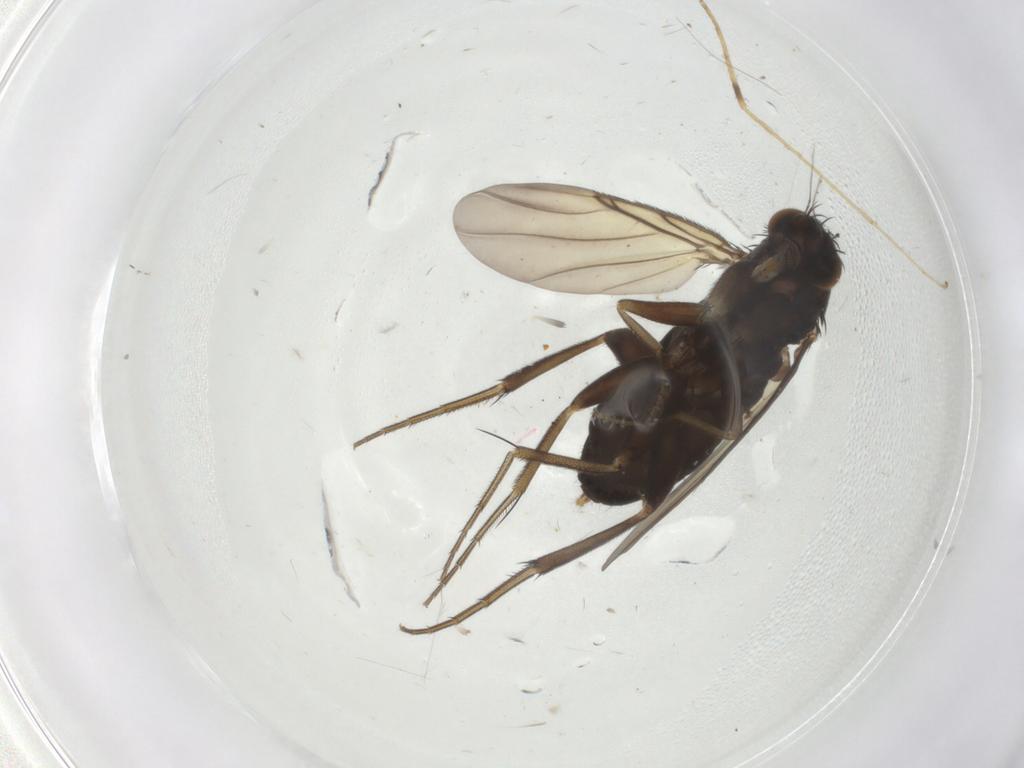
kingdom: Animalia
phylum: Arthropoda
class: Insecta
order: Diptera
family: Phoridae
